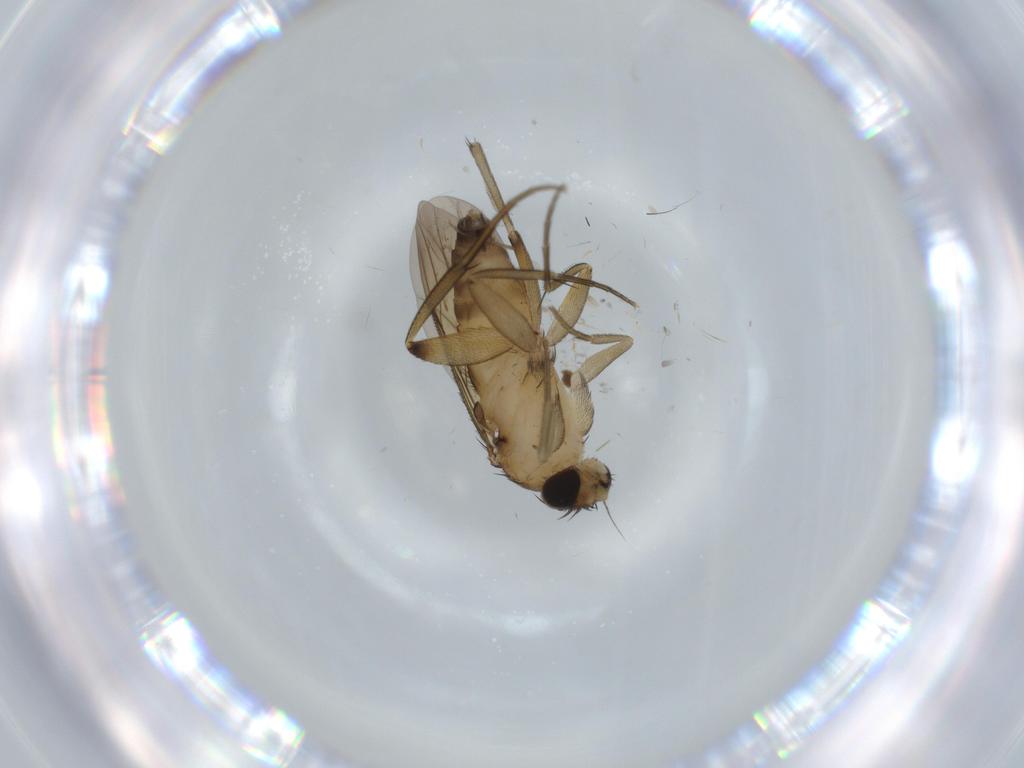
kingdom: Animalia
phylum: Arthropoda
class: Insecta
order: Diptera
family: Phoridae
